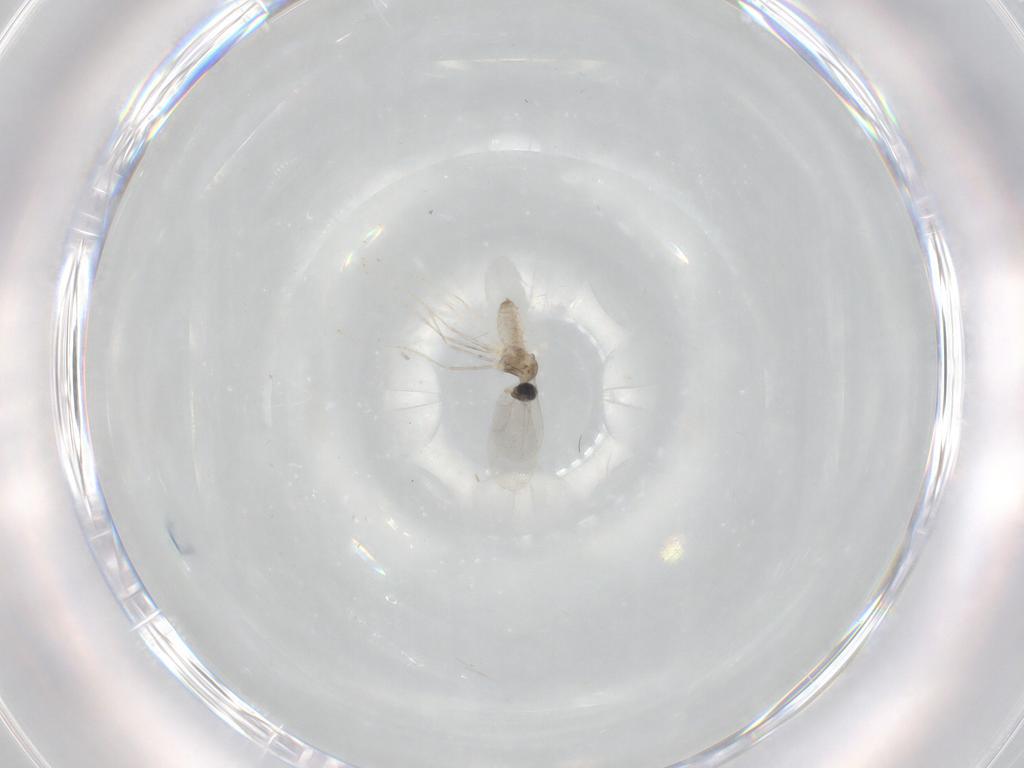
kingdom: Animalia
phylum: Arthropoda
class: Insecta
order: Diptera
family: Cecidomyiidae
